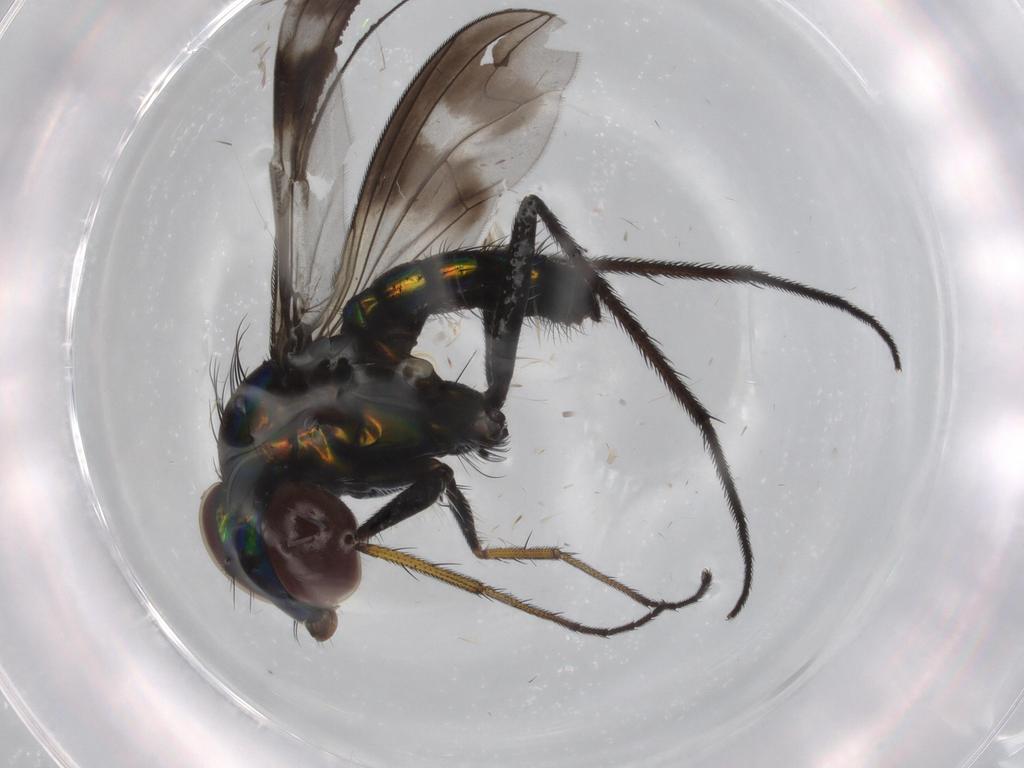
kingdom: Animalia
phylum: Arthropoda
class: Insecta
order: Diptera
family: Dolichopodidae
